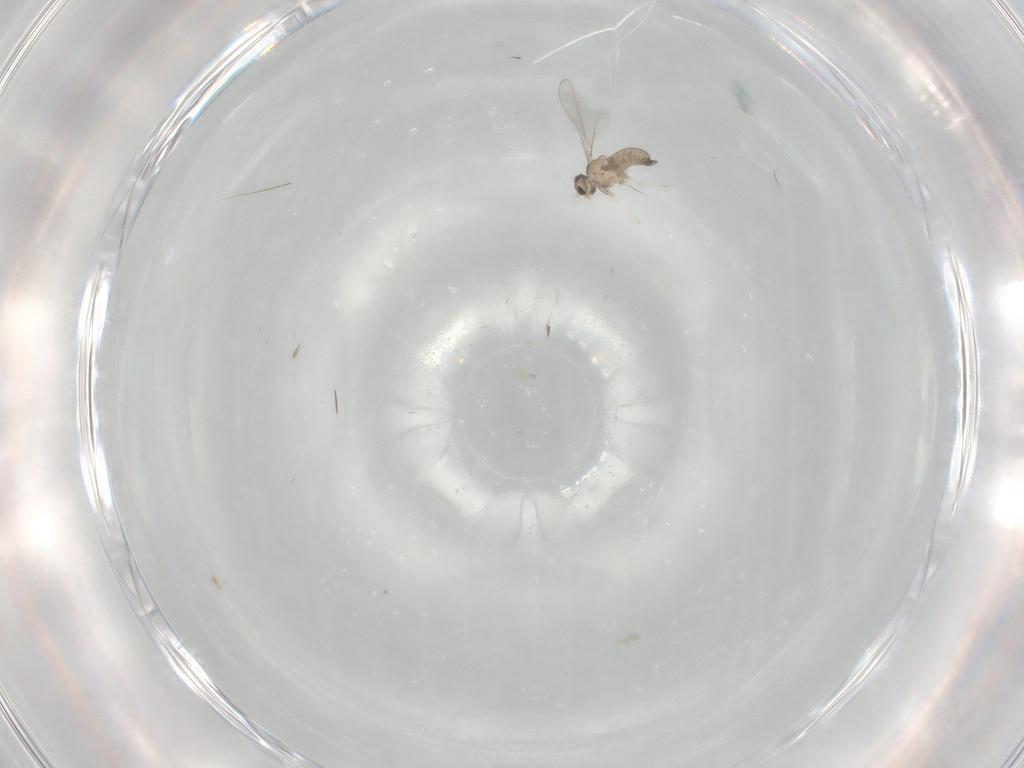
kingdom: Animalia
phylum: Arthropoda
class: Insecta
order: Diptera
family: Cecidomyiidae
